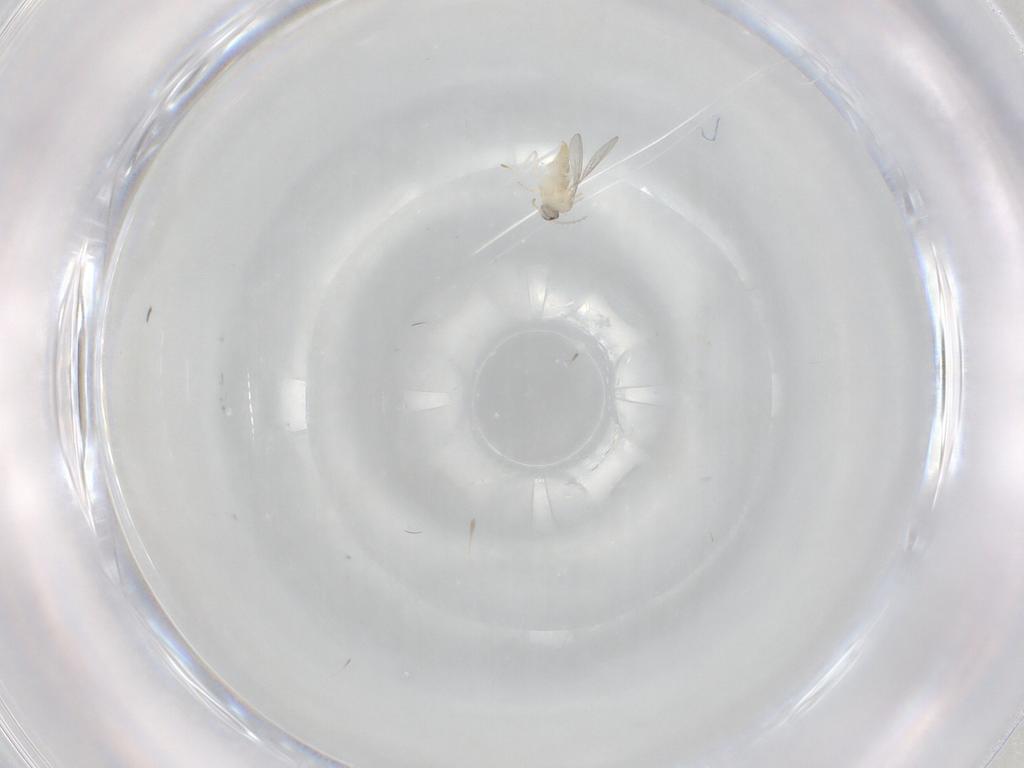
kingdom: Animalia
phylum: Arthropoda
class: Insecta
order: Diptera
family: Cecidomyiidae
